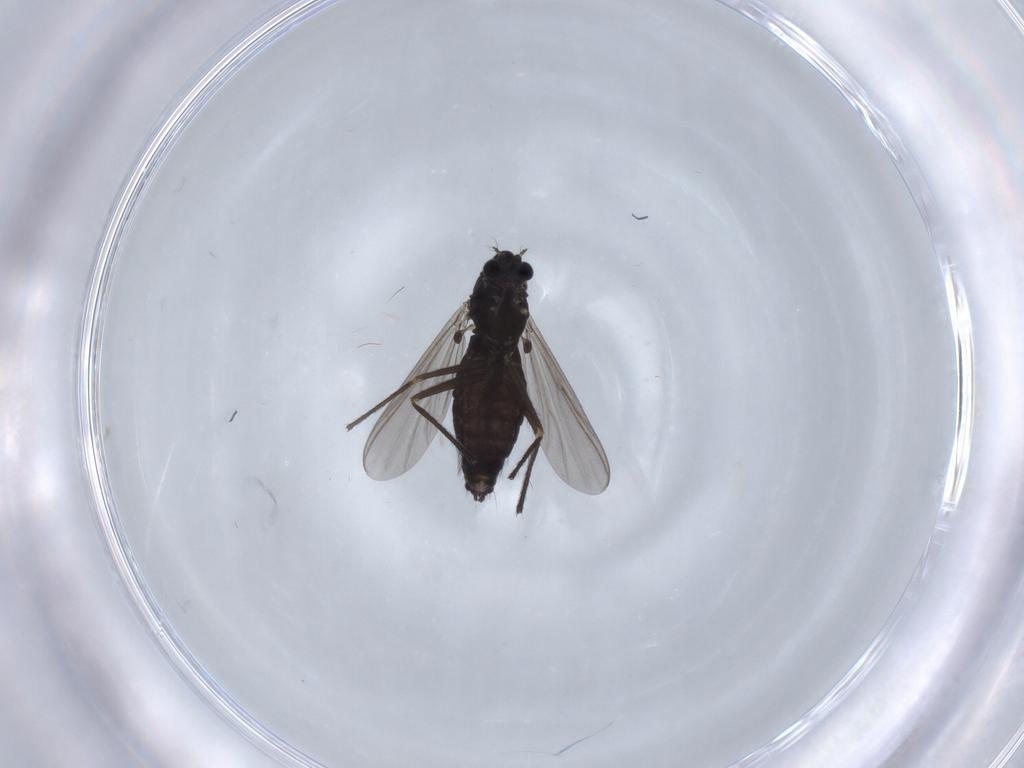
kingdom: Animalia
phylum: Arthropoda
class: Insecta
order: Diptera
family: Chironomidae
